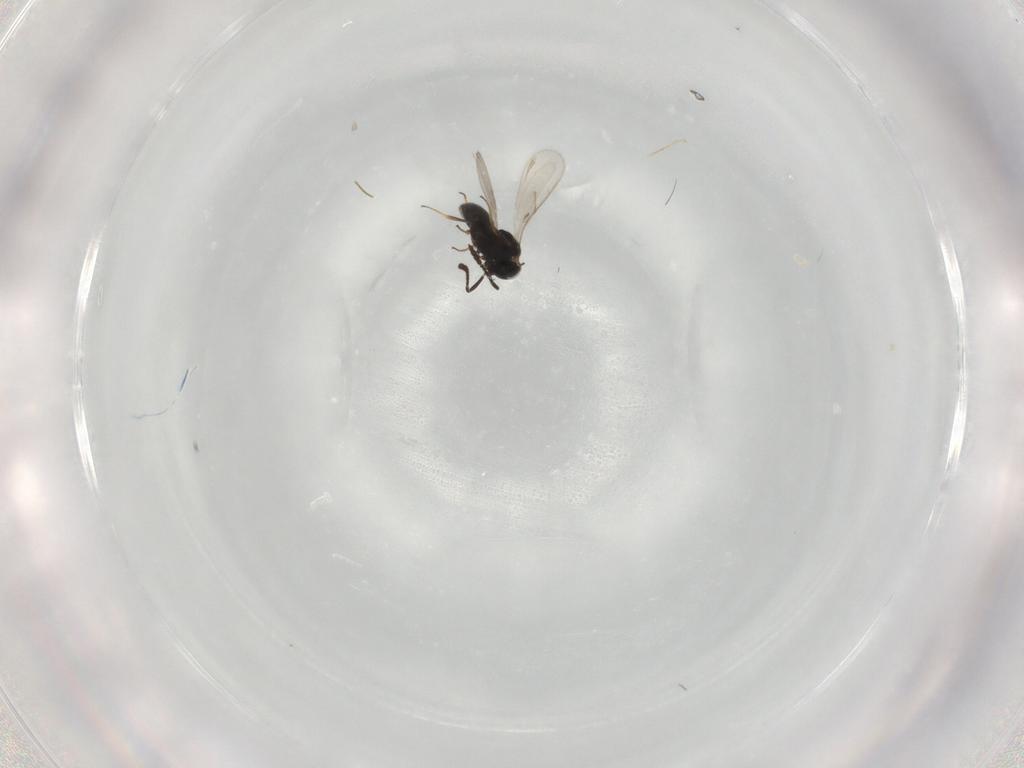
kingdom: Animalia
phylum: Arthropoda
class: Insecta
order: Hymenoptera
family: Scelionidae
